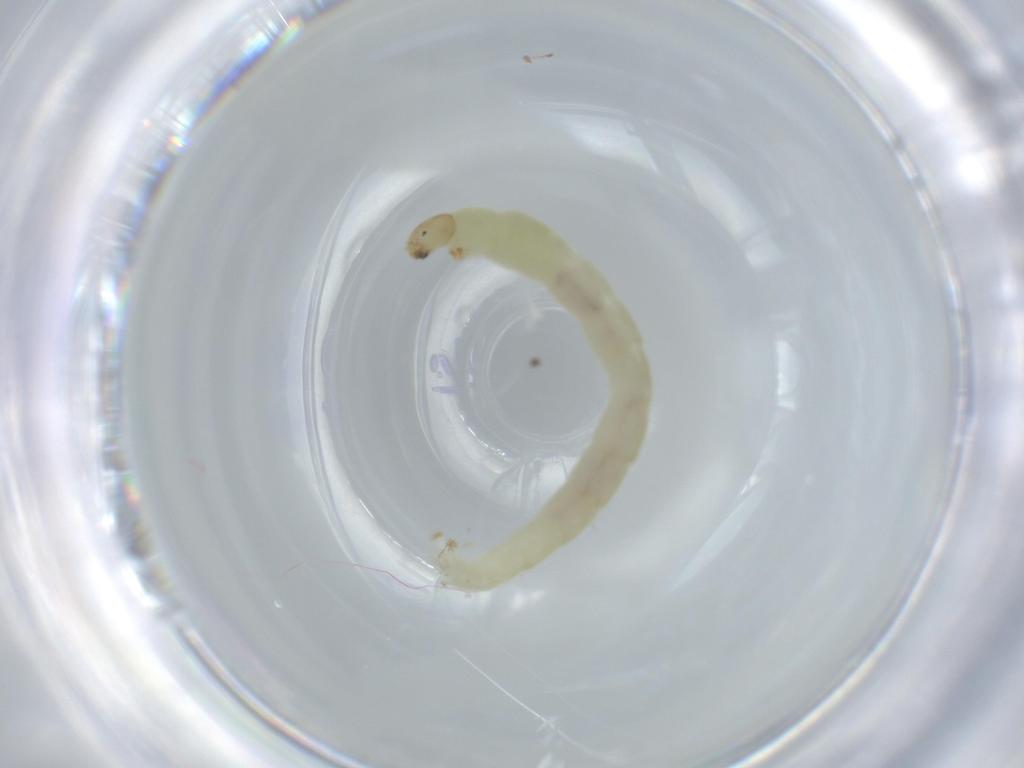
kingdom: Animalia
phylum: Arthropoda
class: Insecta
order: Diptera
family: Chironomidae
